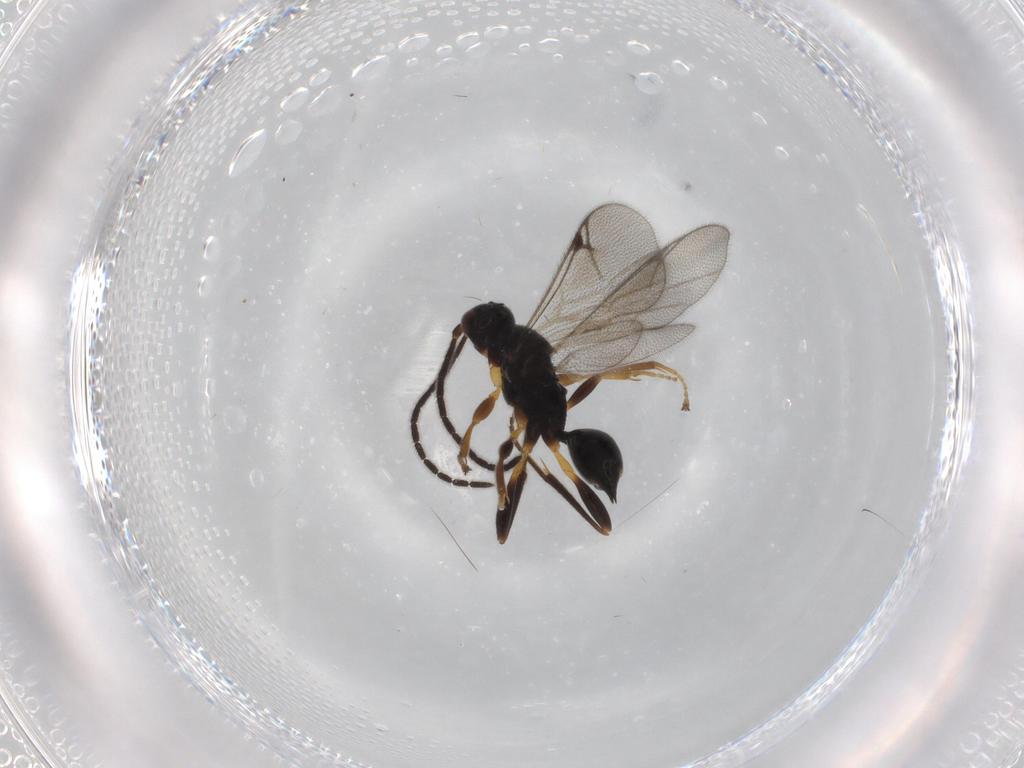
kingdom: Animalia
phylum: Arthropoda
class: Insecta
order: Hymenoptera
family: Proctotrupidae
